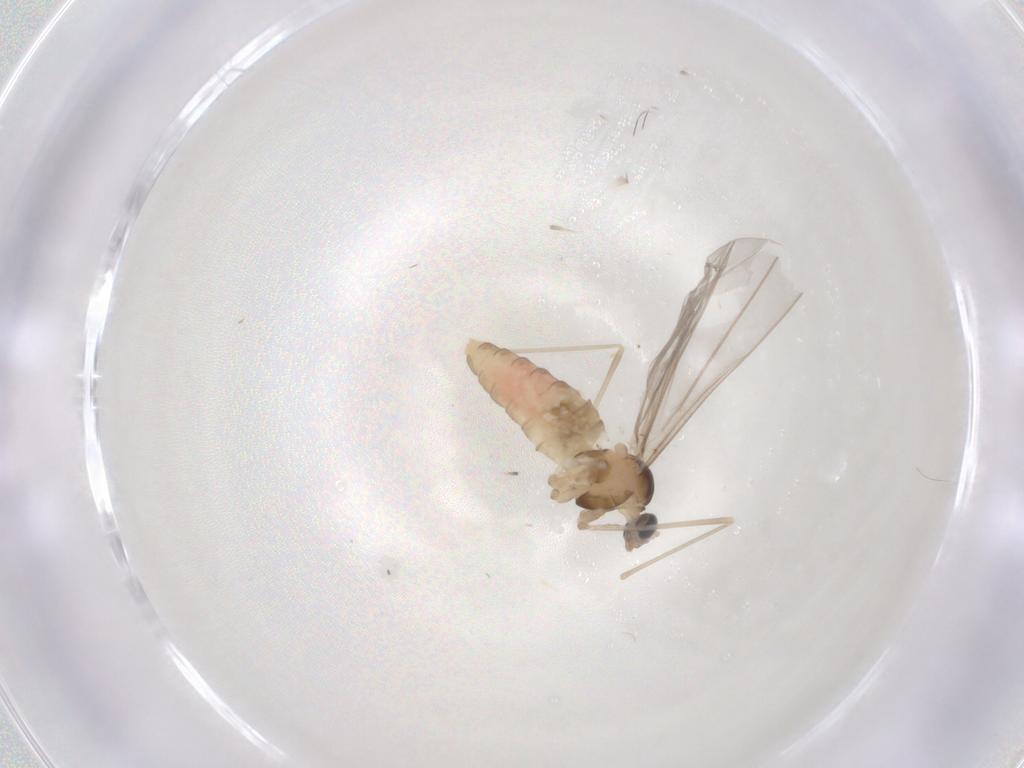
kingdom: Animalia
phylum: Arthropoda
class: Insecta
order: Diptera
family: Cecidomyiidae
